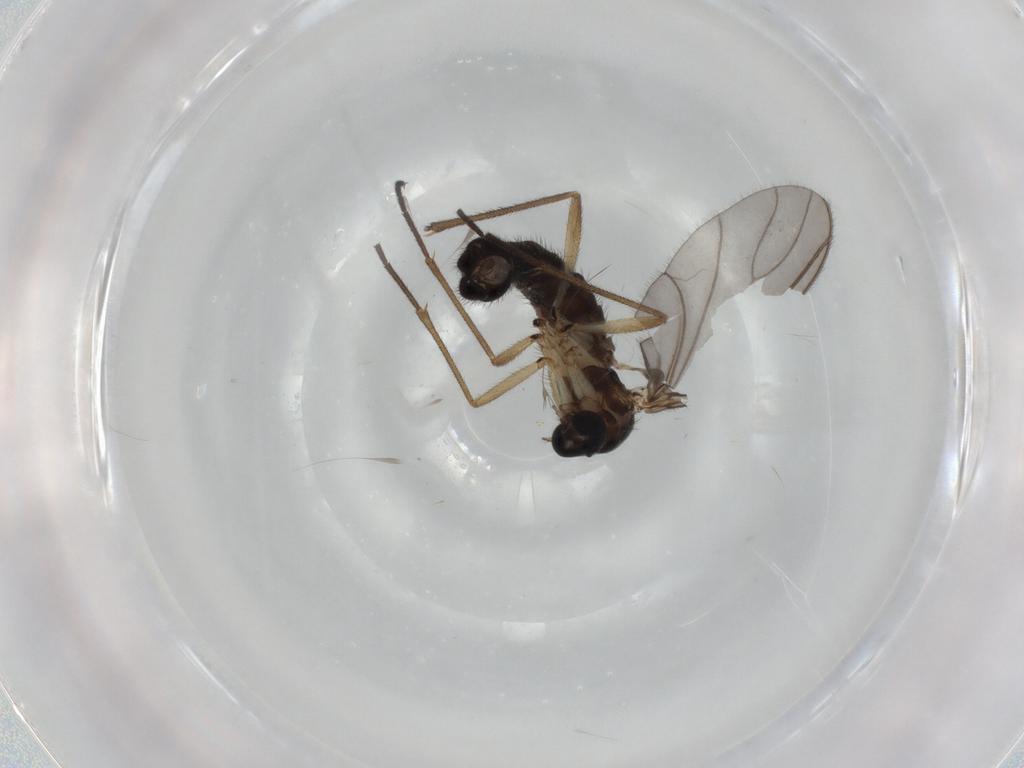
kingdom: Animalia
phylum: Arthropoda
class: Insecta
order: Diptera
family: Sciaridae
